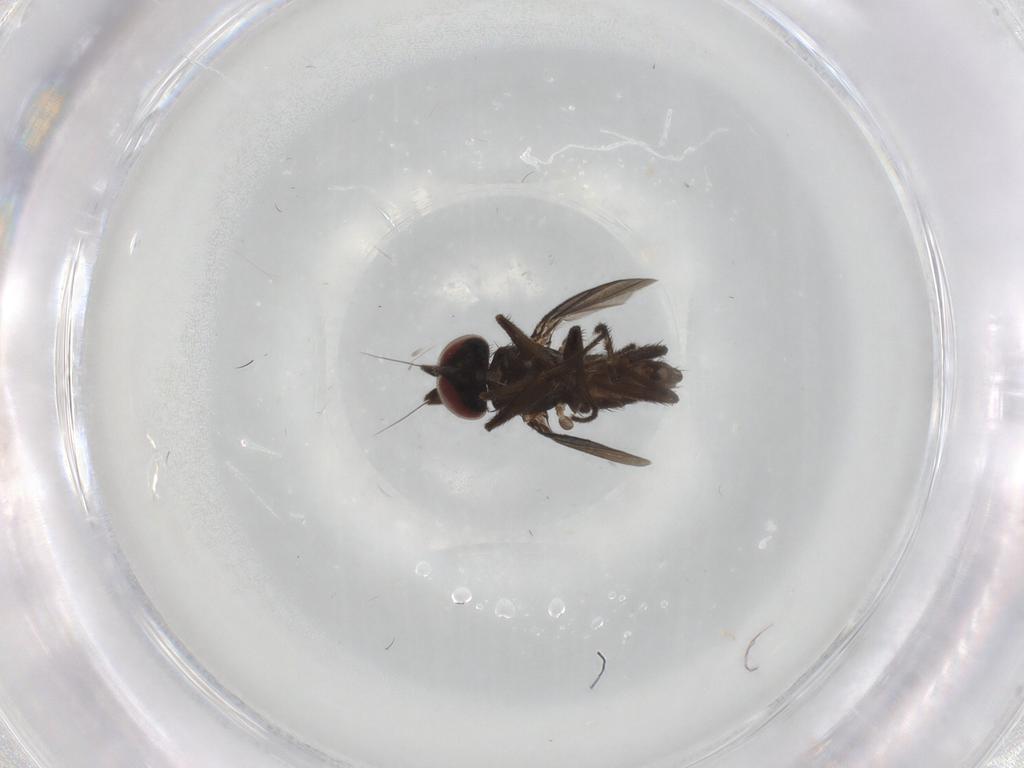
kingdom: Animalia
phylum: Arthropoda
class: Insecta
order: Diptera
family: Dolichopodidae
